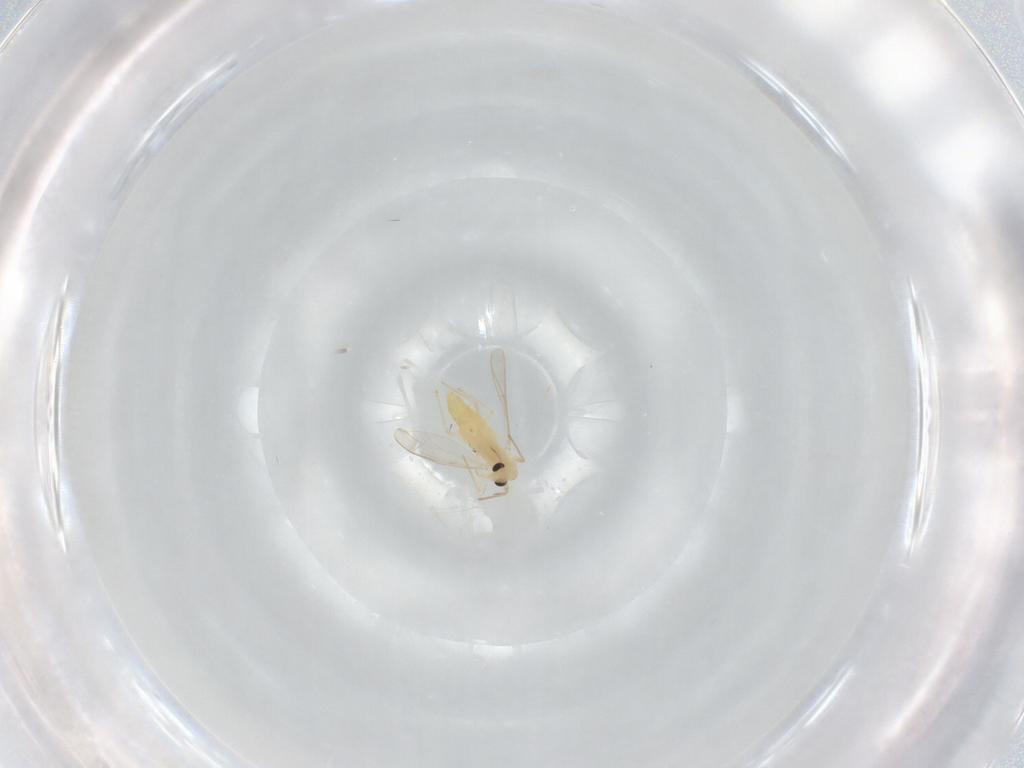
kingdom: Animalia
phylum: Arthropoda
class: Insecta
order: Diptera
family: Chironomidae
